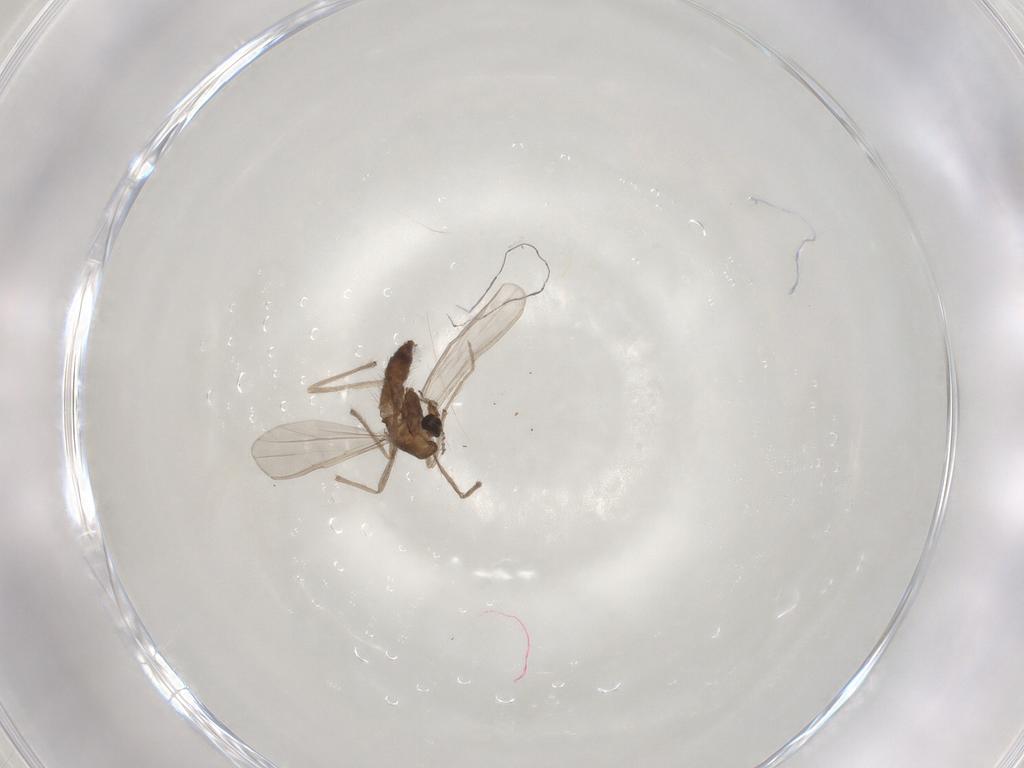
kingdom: Animalia
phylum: Arthropoda
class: Insecta
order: Diptera
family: Chironomidae
